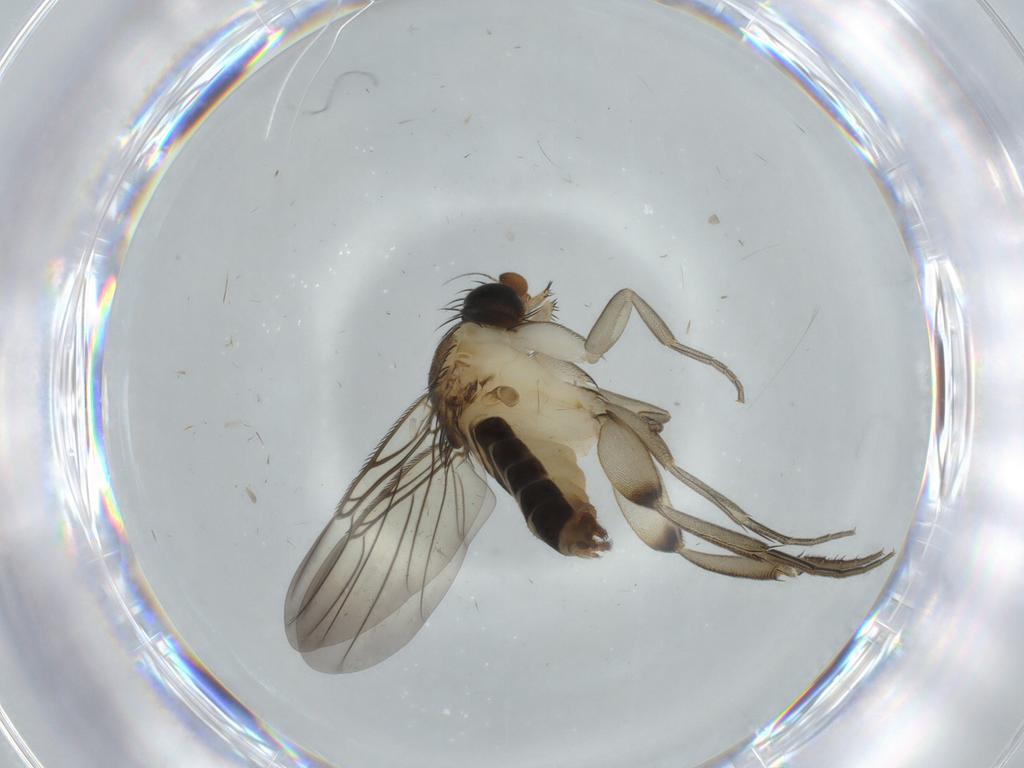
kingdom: Animalia
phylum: Arthropoda
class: Insecta
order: Diptera
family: Phoridae
